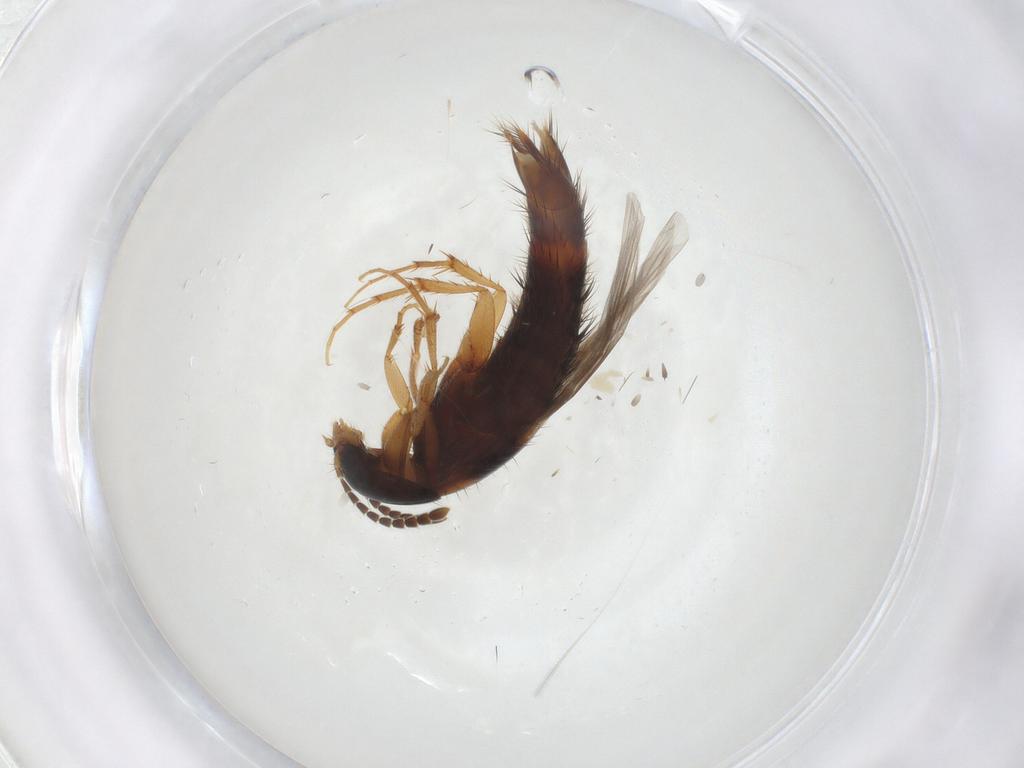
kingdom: Animalia
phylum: Arthropoda
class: Insecta
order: Coleoptera
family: Staphylinidae
